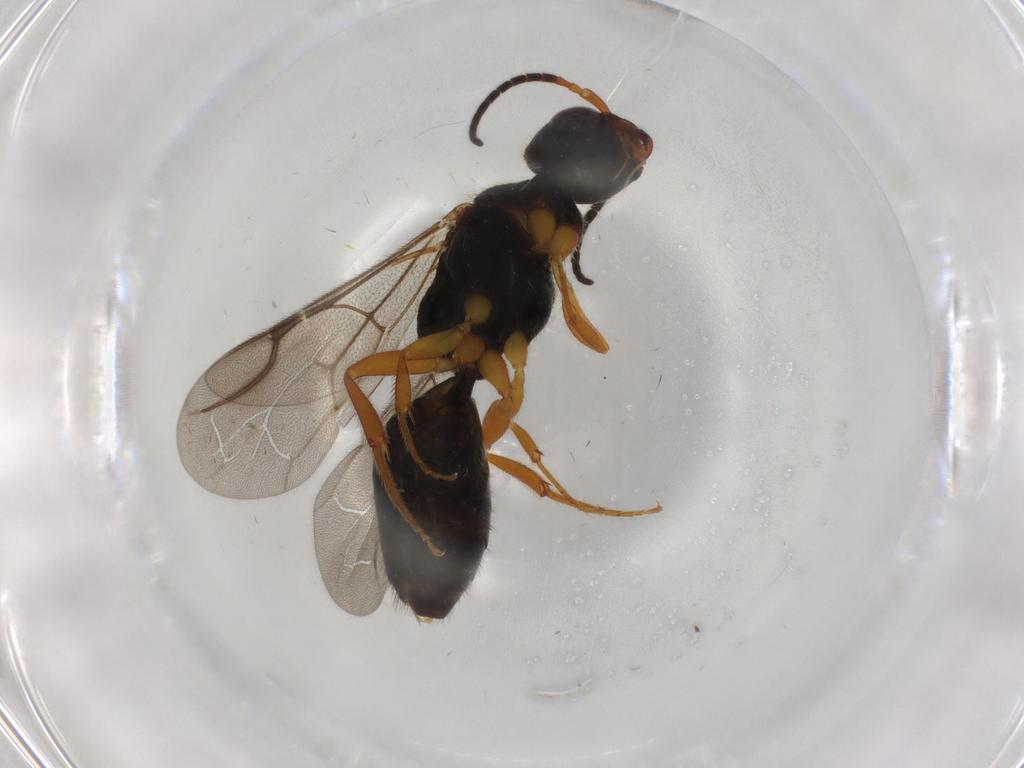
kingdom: Animalia
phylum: Arthropoda
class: Insecta
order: Hymenoptera
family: Bethylidae
